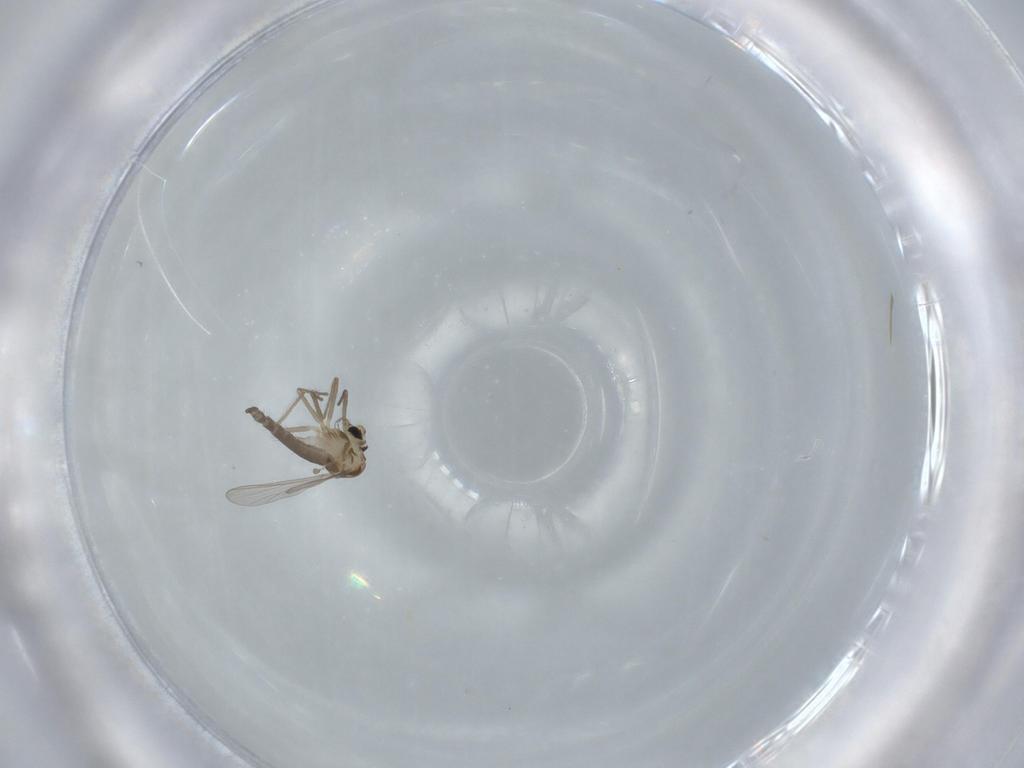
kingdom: Animalia
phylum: Arthropoda
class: Insecta
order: Diptera
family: Chironomidae
